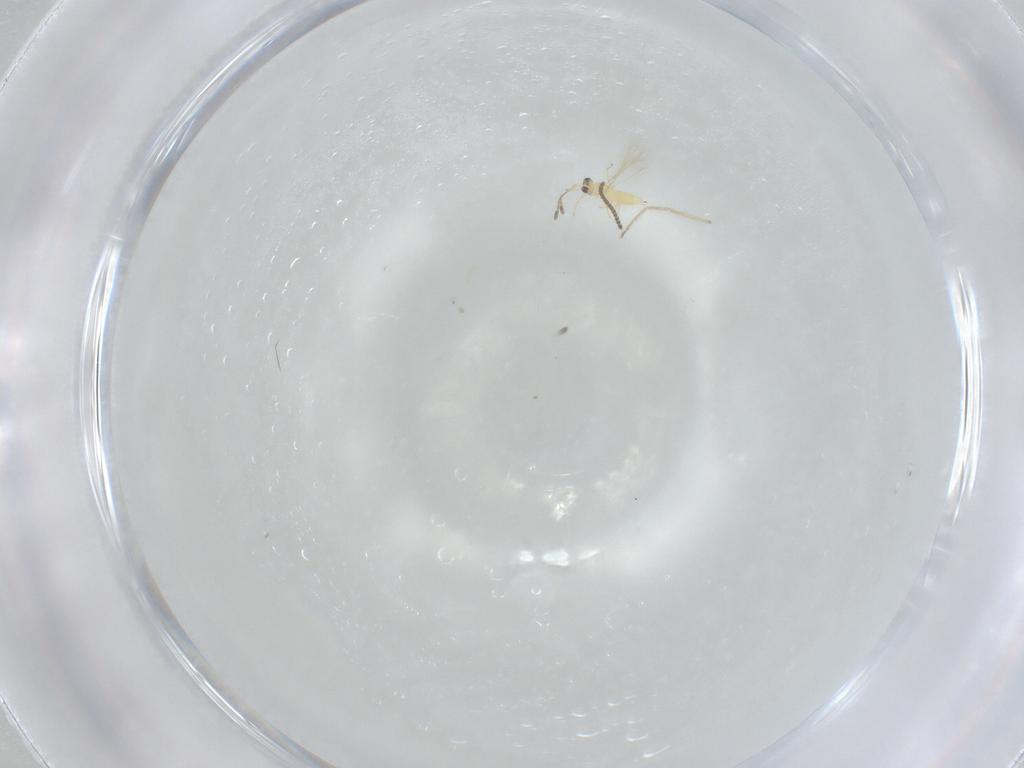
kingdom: Animalia
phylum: Arthropoda
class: Insecta
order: Hymenoptera
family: Mymaridae
